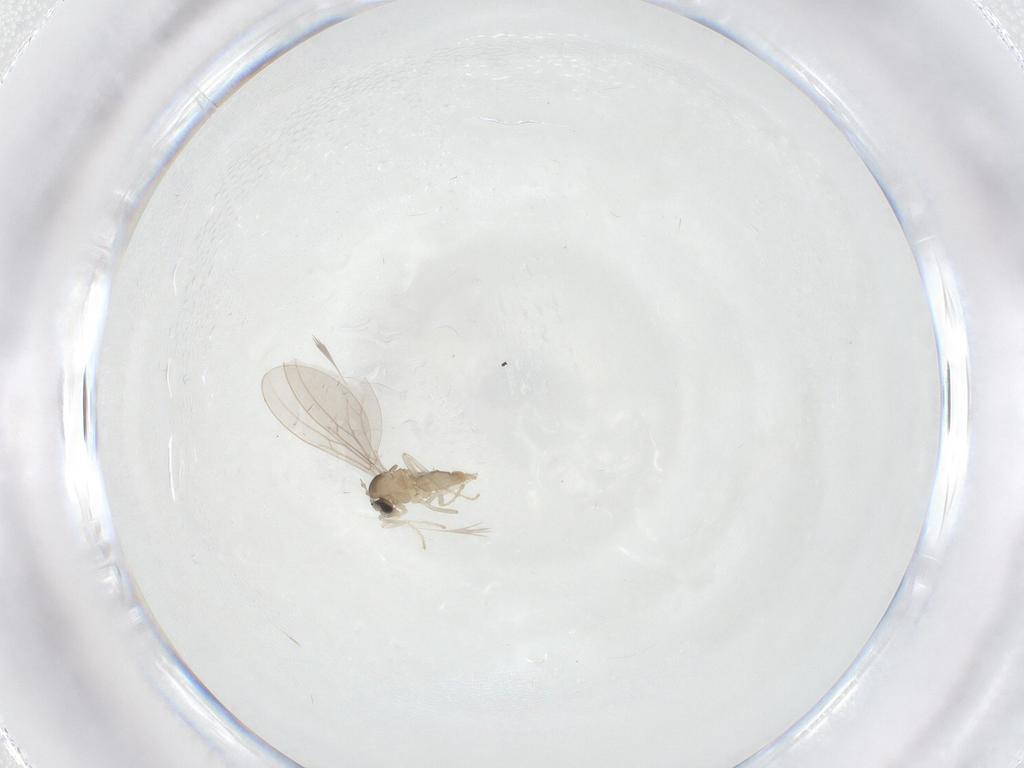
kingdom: Animalia
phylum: Arthropoda
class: Insecta
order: Diptera
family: Cecidomyiidae
